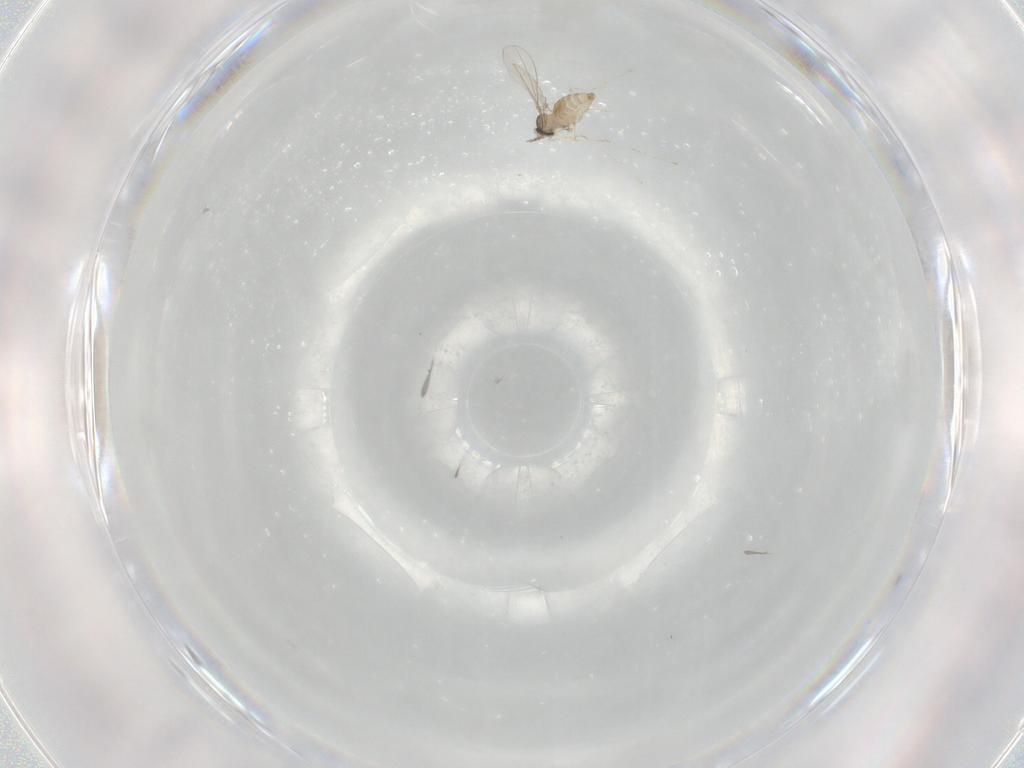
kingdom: Animalia
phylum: Arthropoda
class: Insecta
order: Diptera
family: Cecidomyiidae
